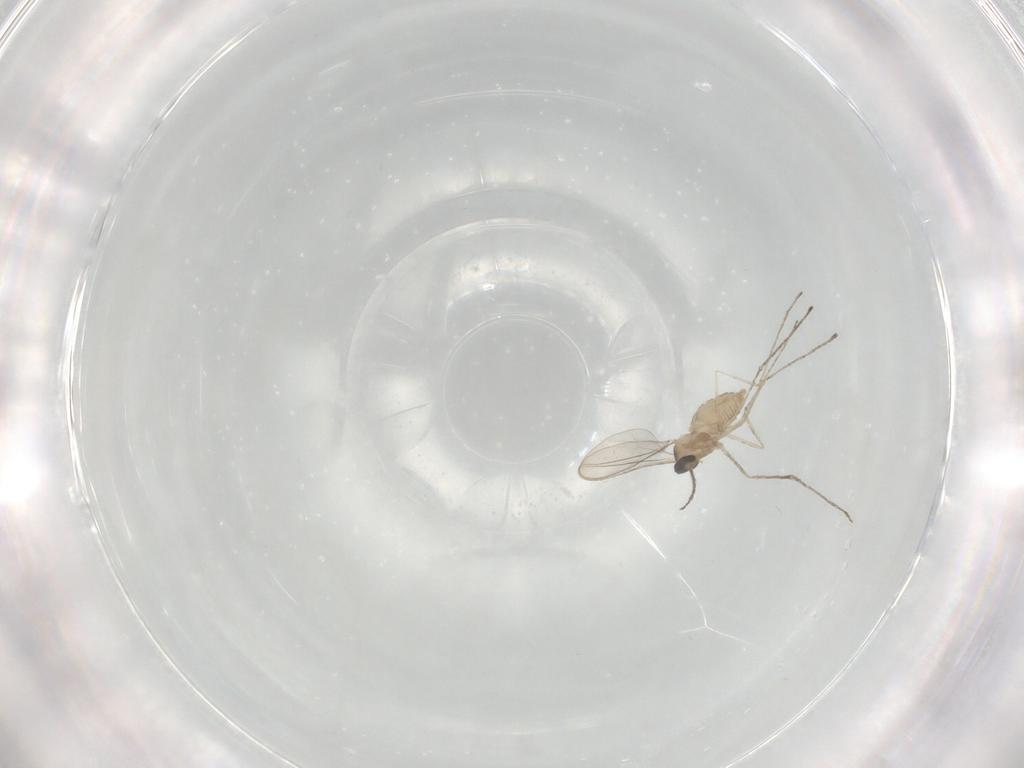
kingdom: Animalia
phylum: Arthropoda
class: Insecta
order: Diptera
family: Cecidomyiidae
